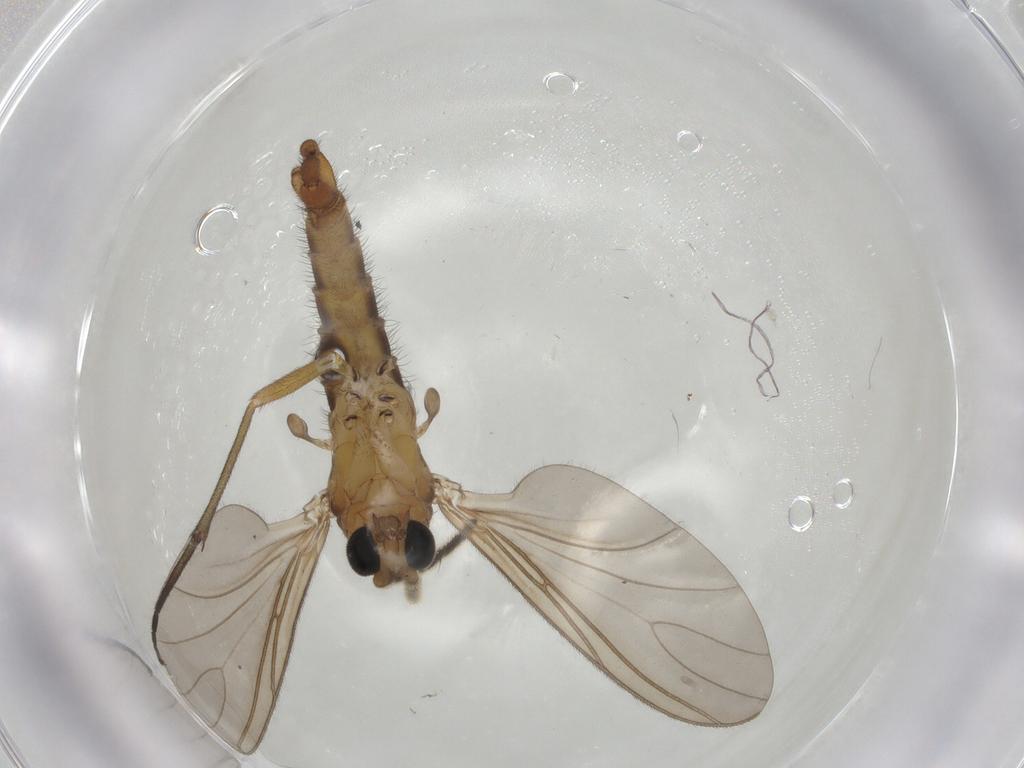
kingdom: Animalia
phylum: Arthropoda
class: Insecta
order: Diptera
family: Sciaridae
